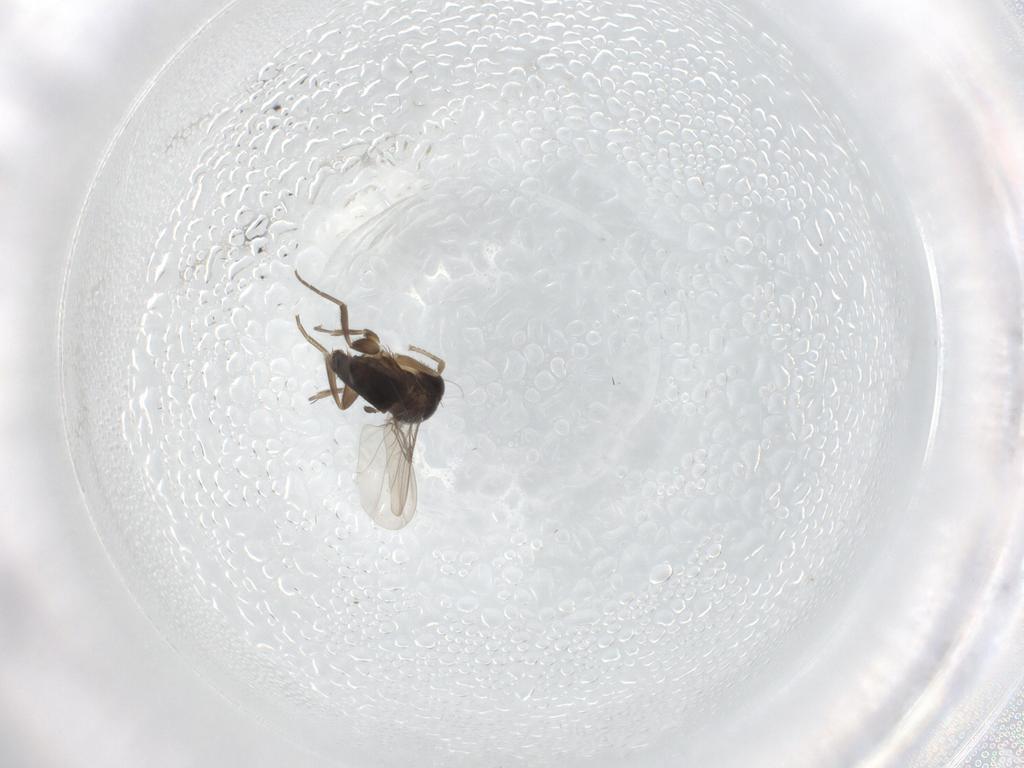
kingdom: Animalia
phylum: Arthropoda
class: Insecta
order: Diptera
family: Phoridae
